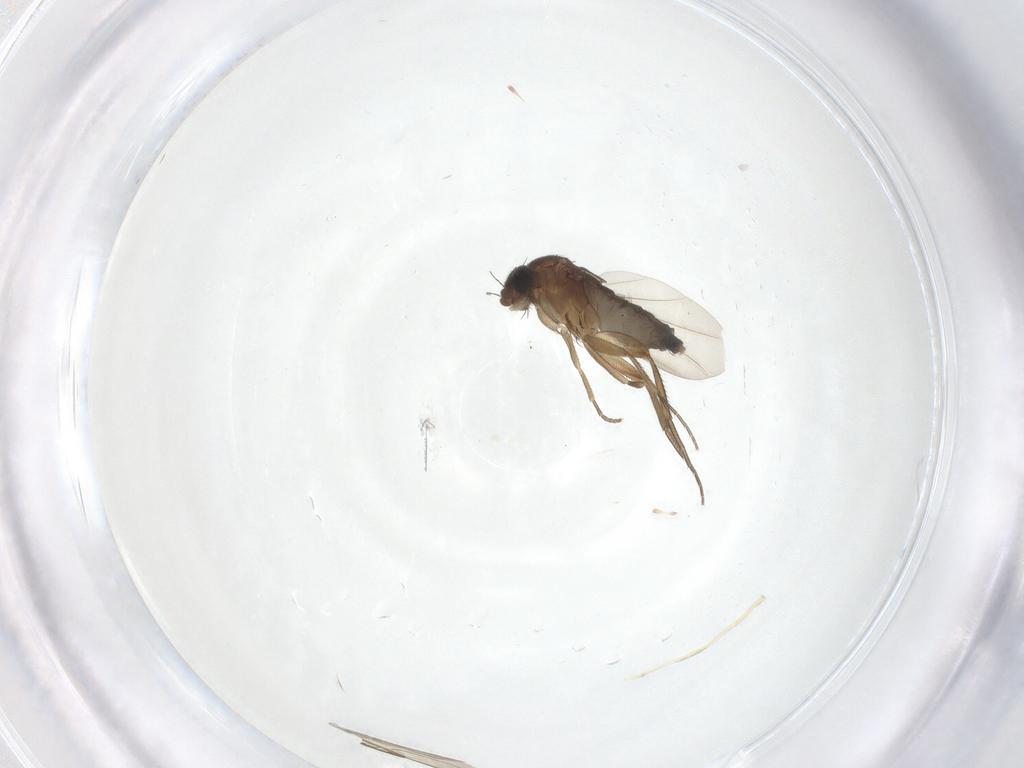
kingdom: Animalia
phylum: Arthropoda
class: Insecta
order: Diptera
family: Phoridae
